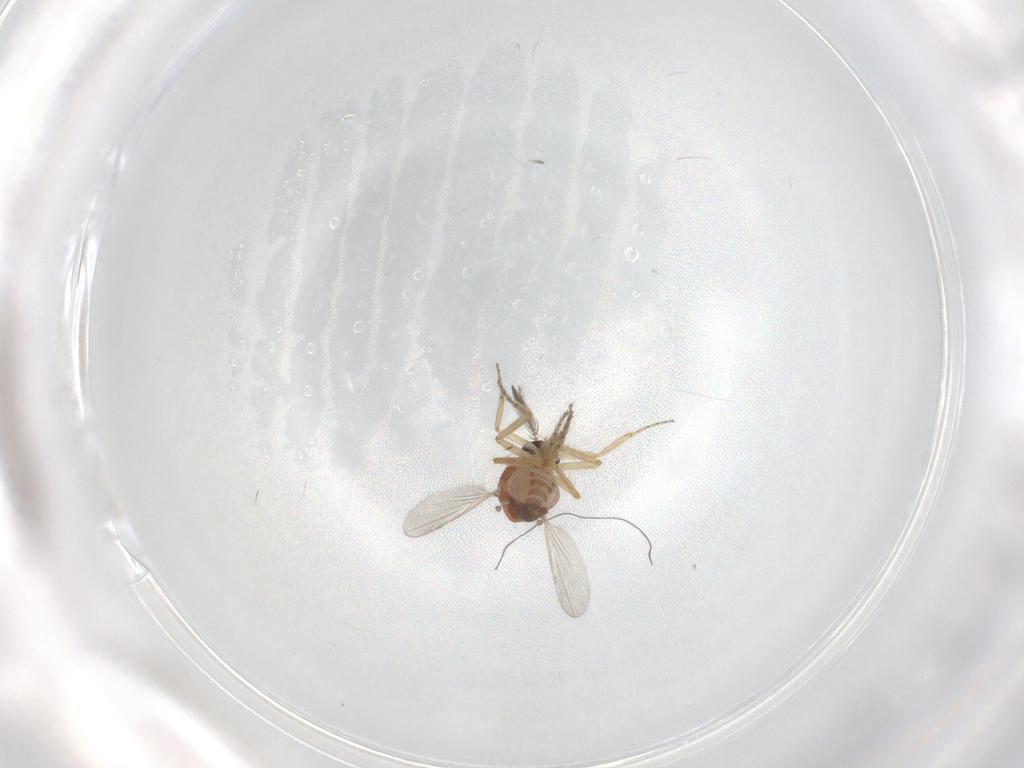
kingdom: Animalia
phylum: Arthropoda
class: Insecta
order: Diptera
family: Ceratopogonidae
